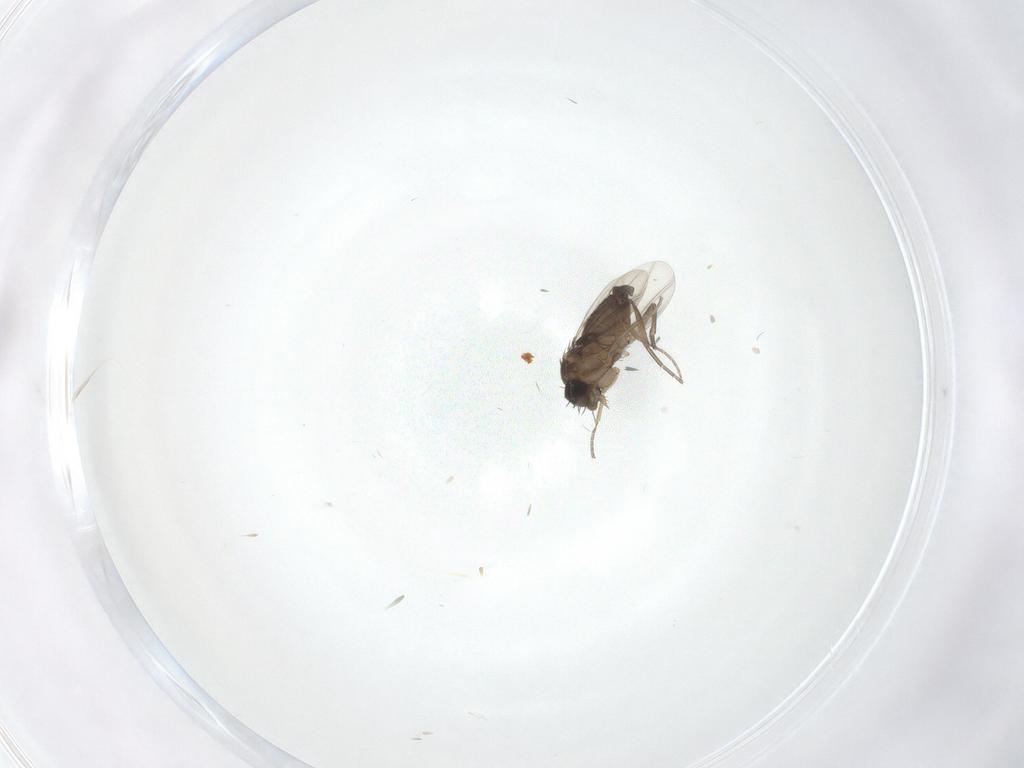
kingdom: Animalia
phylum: Arthropoda
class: Insecta
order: Diptera
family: Phoridae
